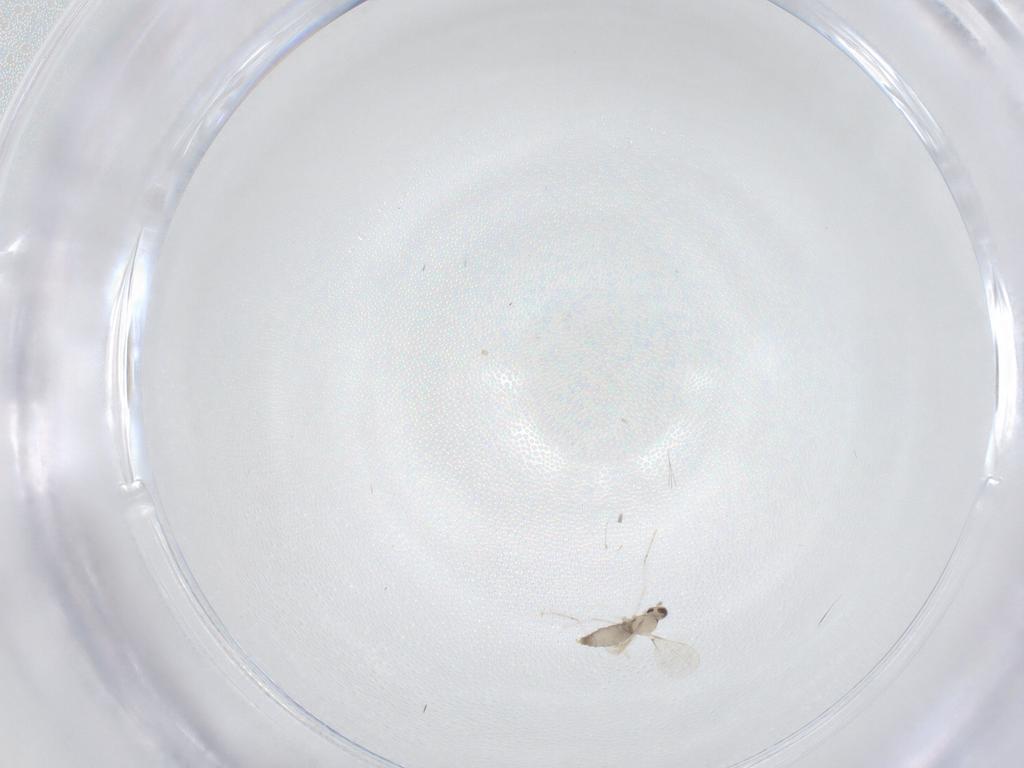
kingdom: Animalia
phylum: Arthropoda
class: Insecta
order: Diptera
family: Cecidomyiidae
